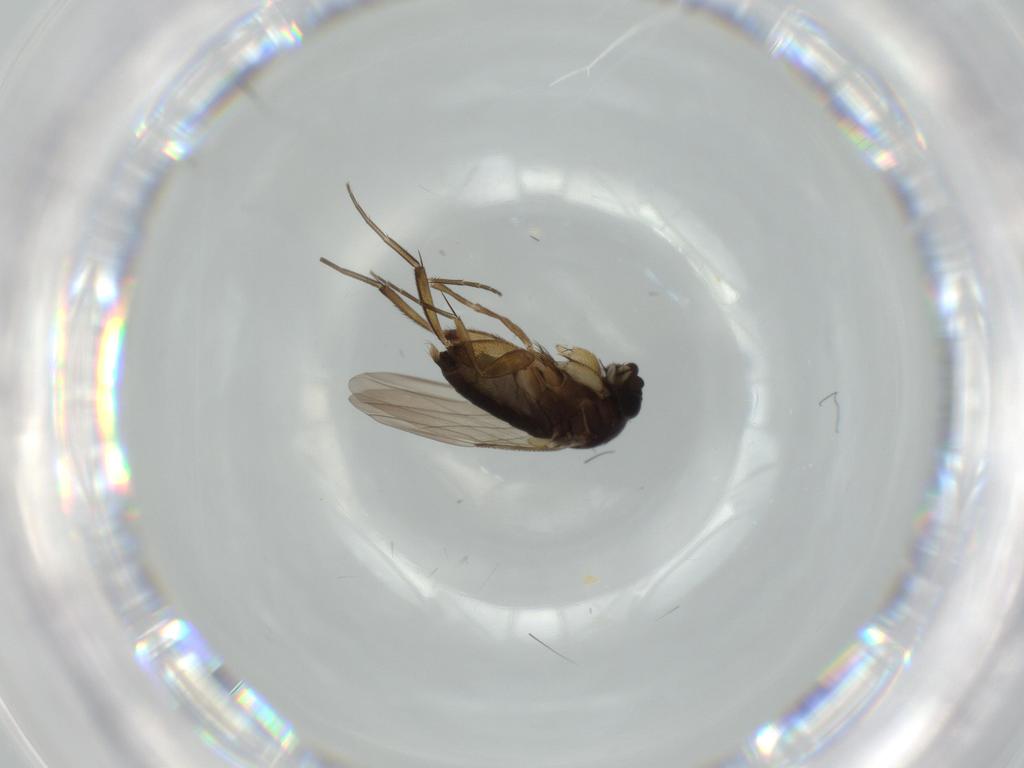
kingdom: Animalia
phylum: Arthropoda
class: Insecta
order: Diptera
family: Phoridae
